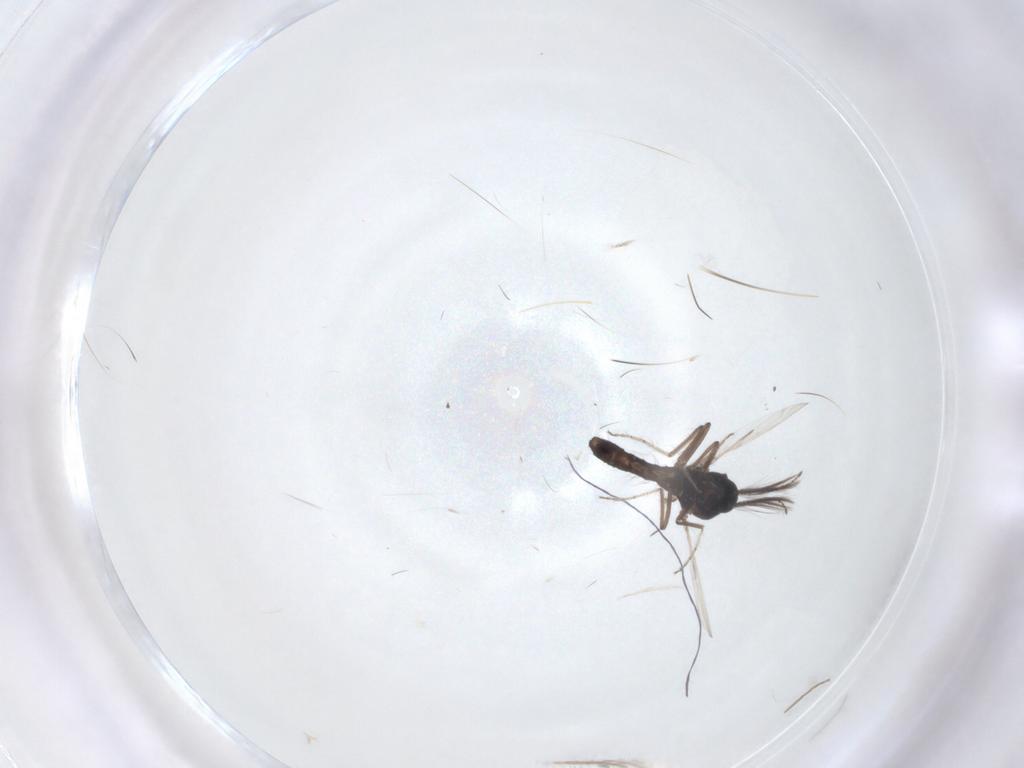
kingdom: Animalia
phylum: Arthropoda
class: Insecta
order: Diptera
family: Ceratopogonidae
